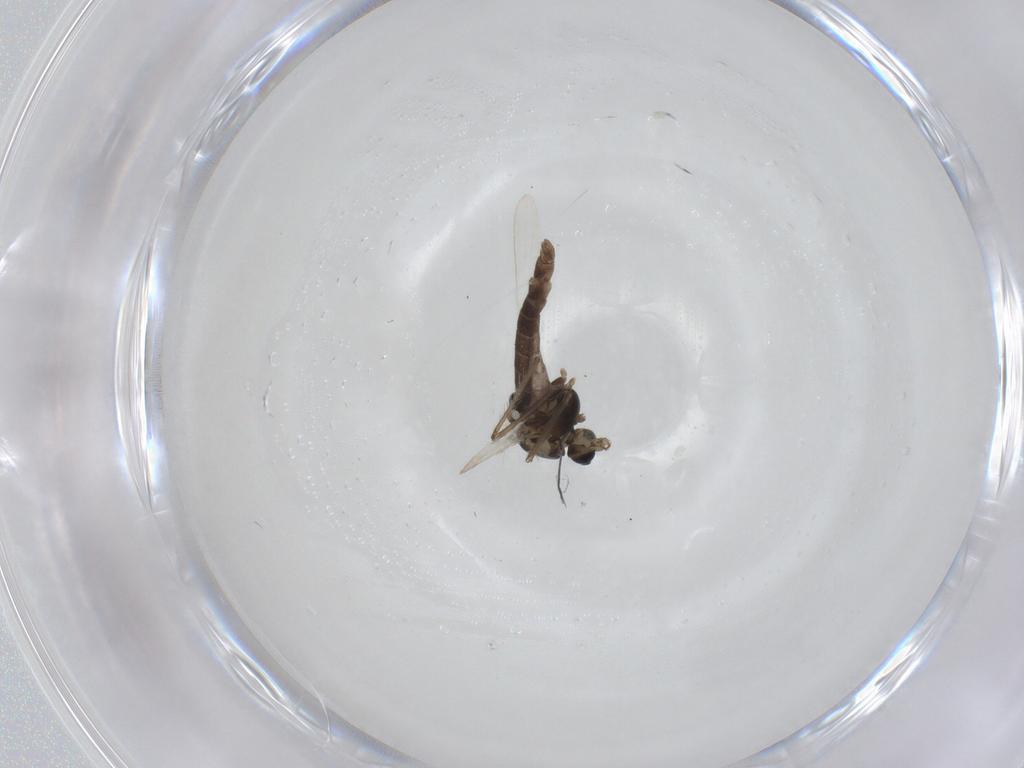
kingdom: Animalia
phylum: Arthropoda
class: Insecta
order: Diptera
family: Chironomidae
